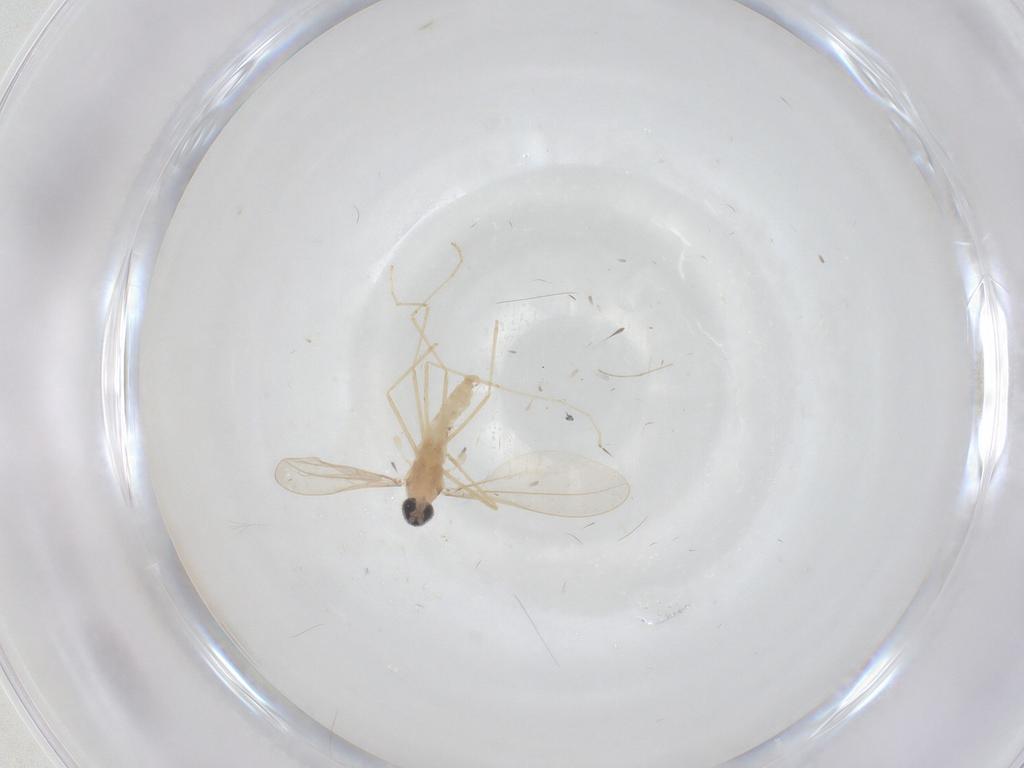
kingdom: Animalia
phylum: Arthropoda
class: Insecta
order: Diptera
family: Cecidomyiidae
